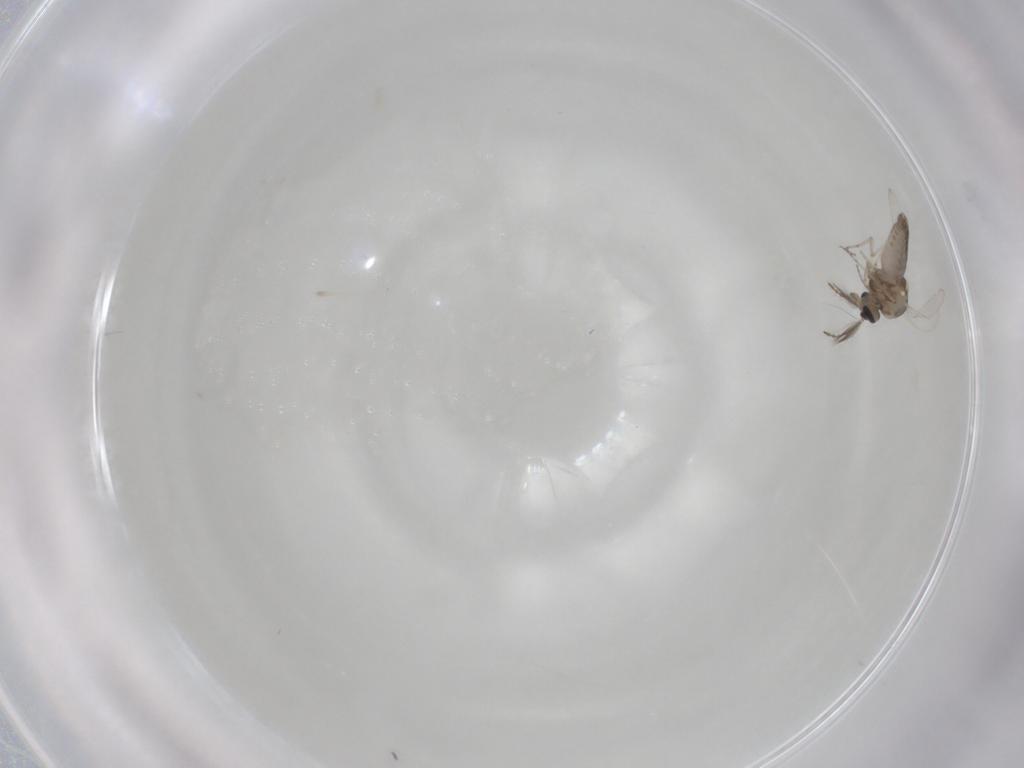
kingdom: Animalia
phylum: Arthropoda
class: Insecta
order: Diptera
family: Ceratopogonidae
